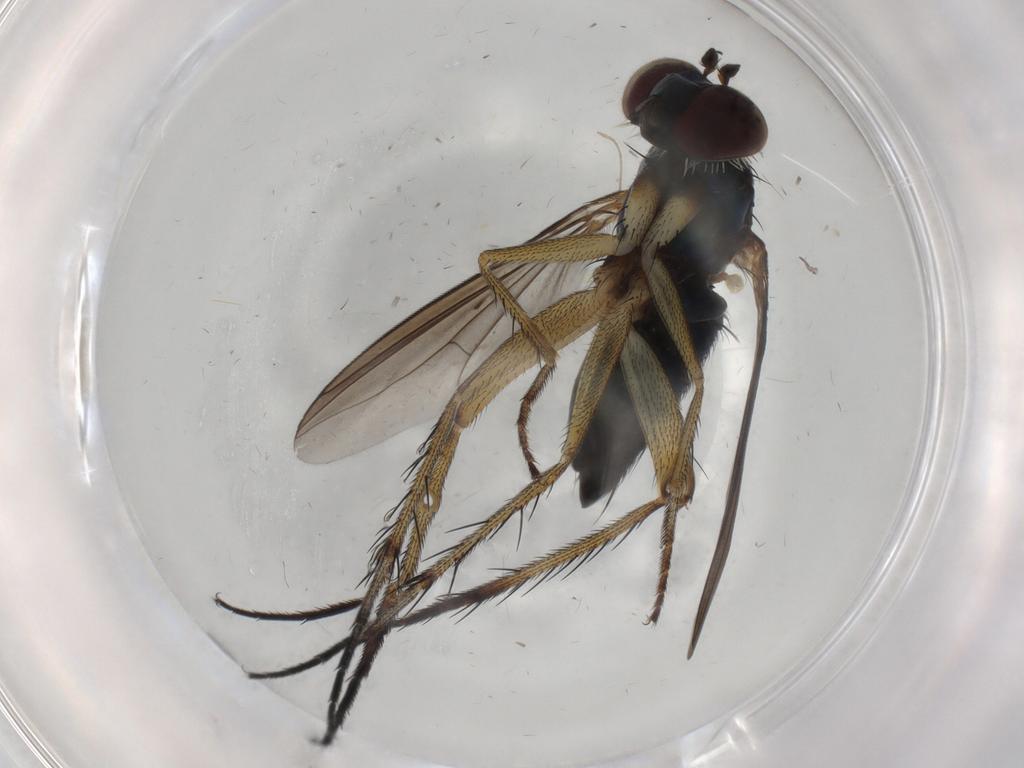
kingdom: Animalia
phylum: Arthropoda
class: Insecta
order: Diptera
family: Dolichopodidae
